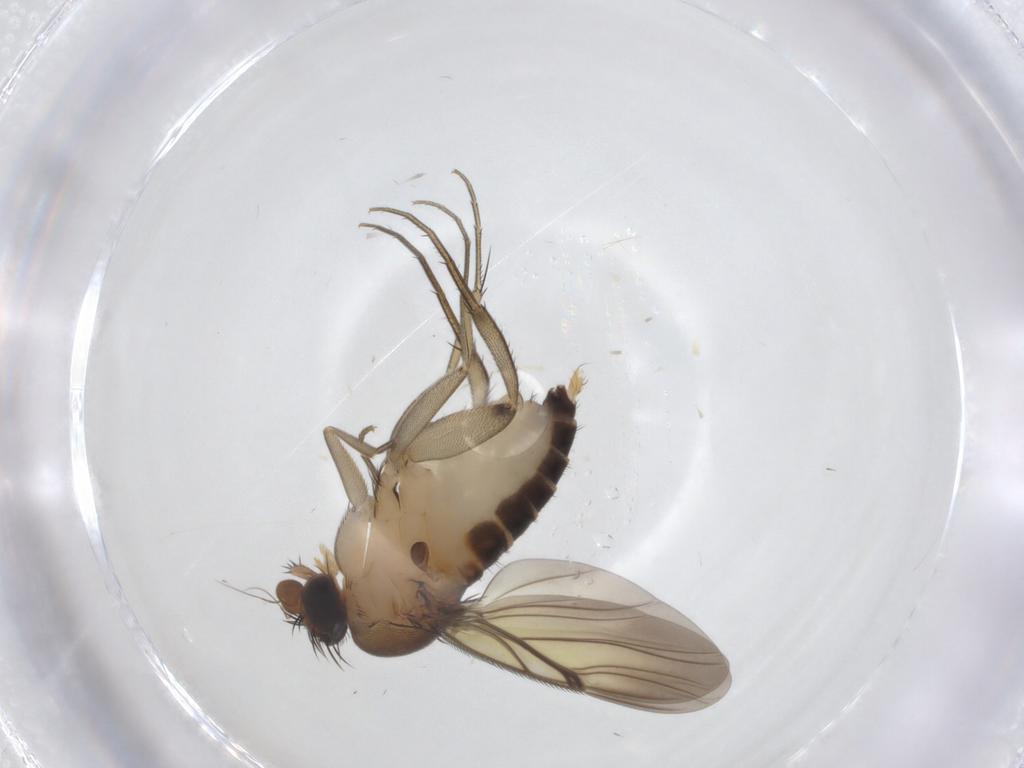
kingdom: Animalia
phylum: Arthropoda
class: Insecta
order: Diptera
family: Phoridae
